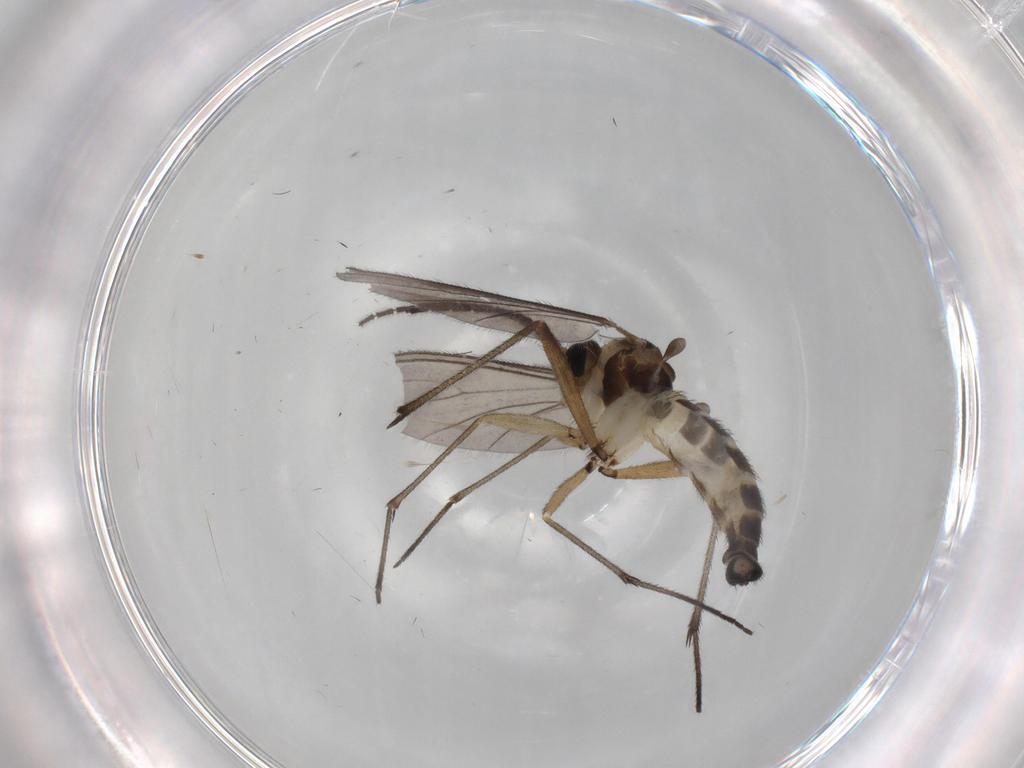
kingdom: Animalia
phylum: Arthropoda
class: Insecta
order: Diptera
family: Sciaridae
